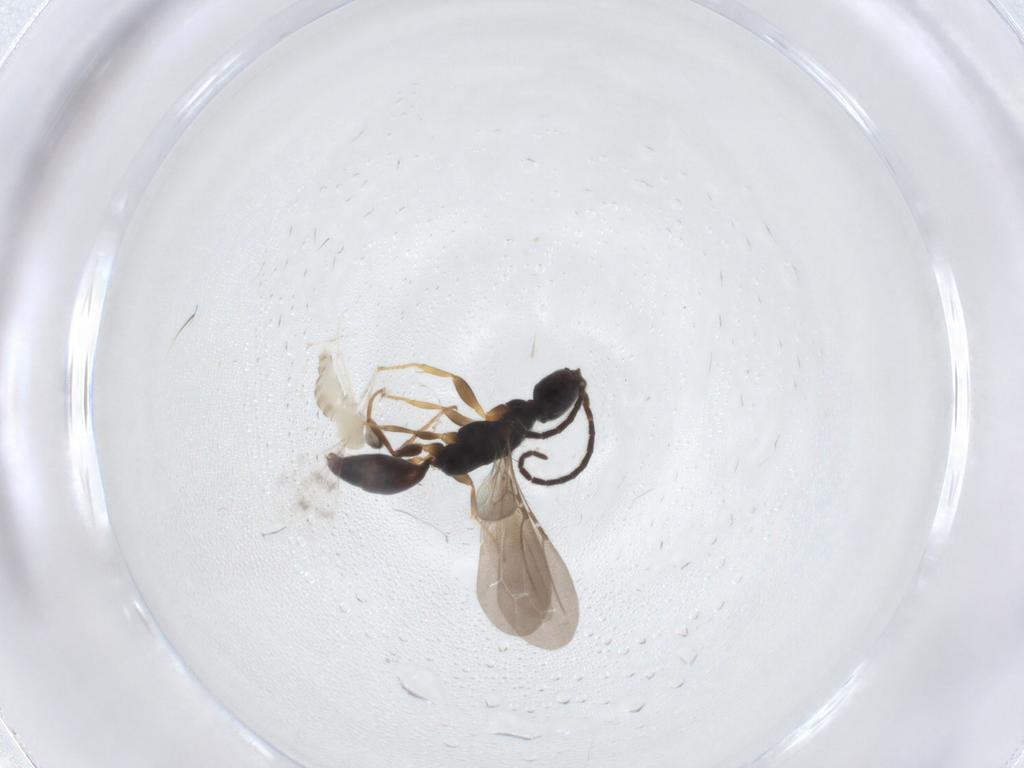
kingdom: Animalia
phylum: Arthropoda
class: Insecta
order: Diptera
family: Cecidomyiidae
